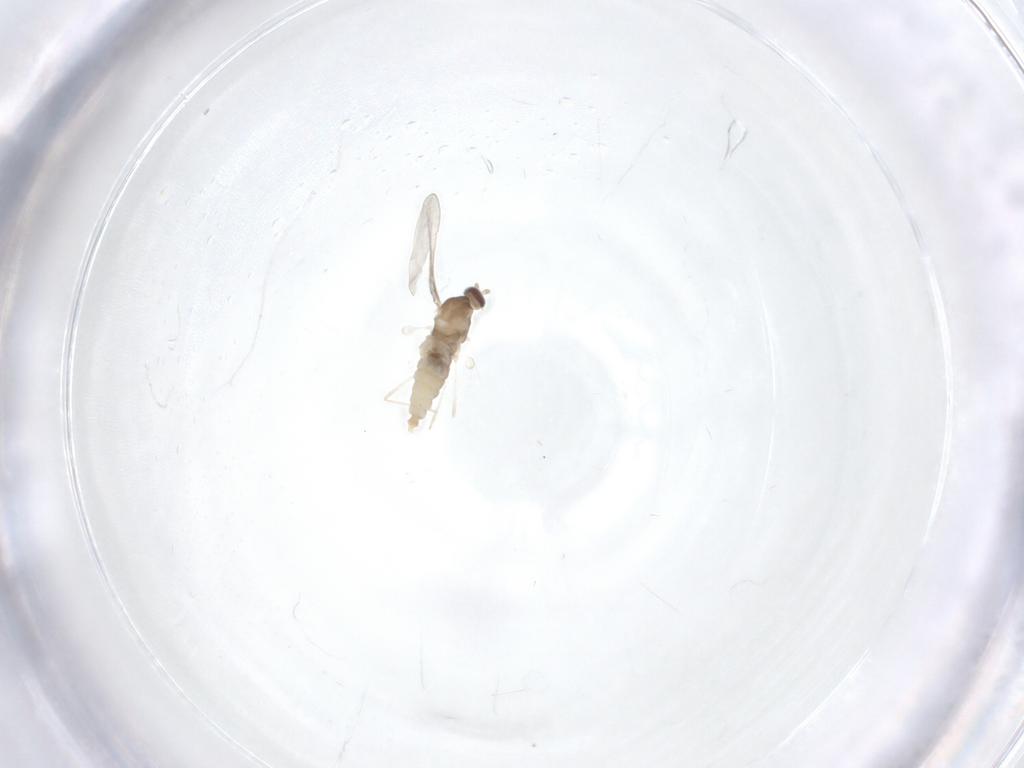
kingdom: Animalia
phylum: Arthropoda
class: Insecta
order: Diptera
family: Cecidomyiidae
